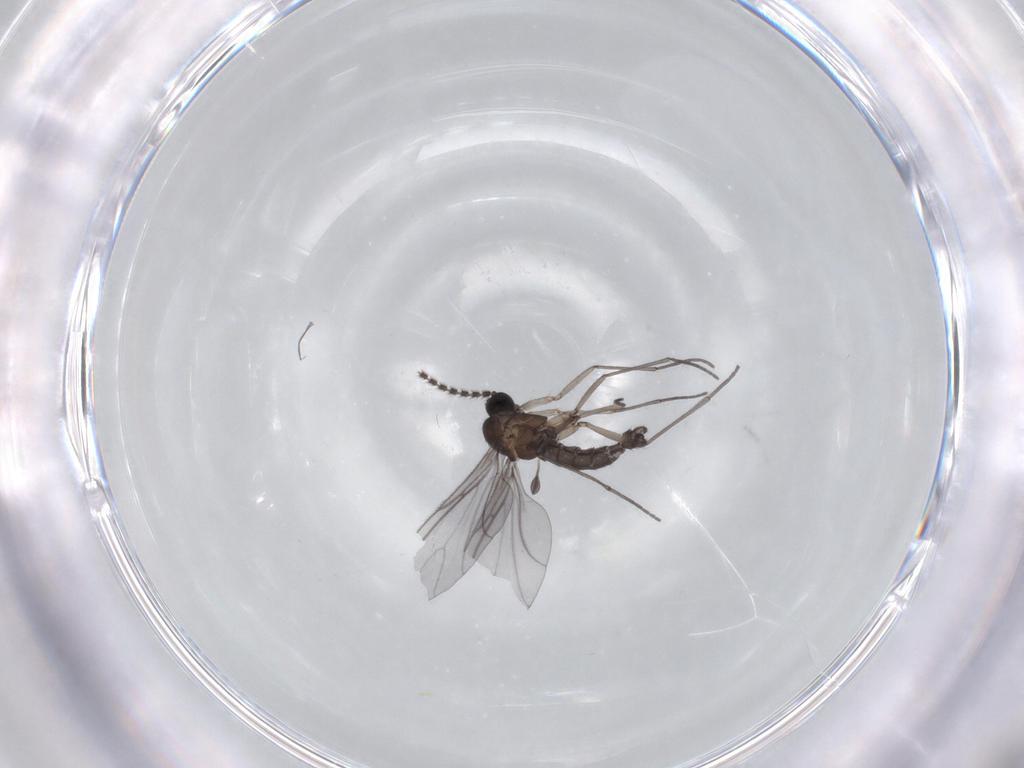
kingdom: Animalia
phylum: Arthropoda
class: Insecta
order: Diptera
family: Sciaridae
